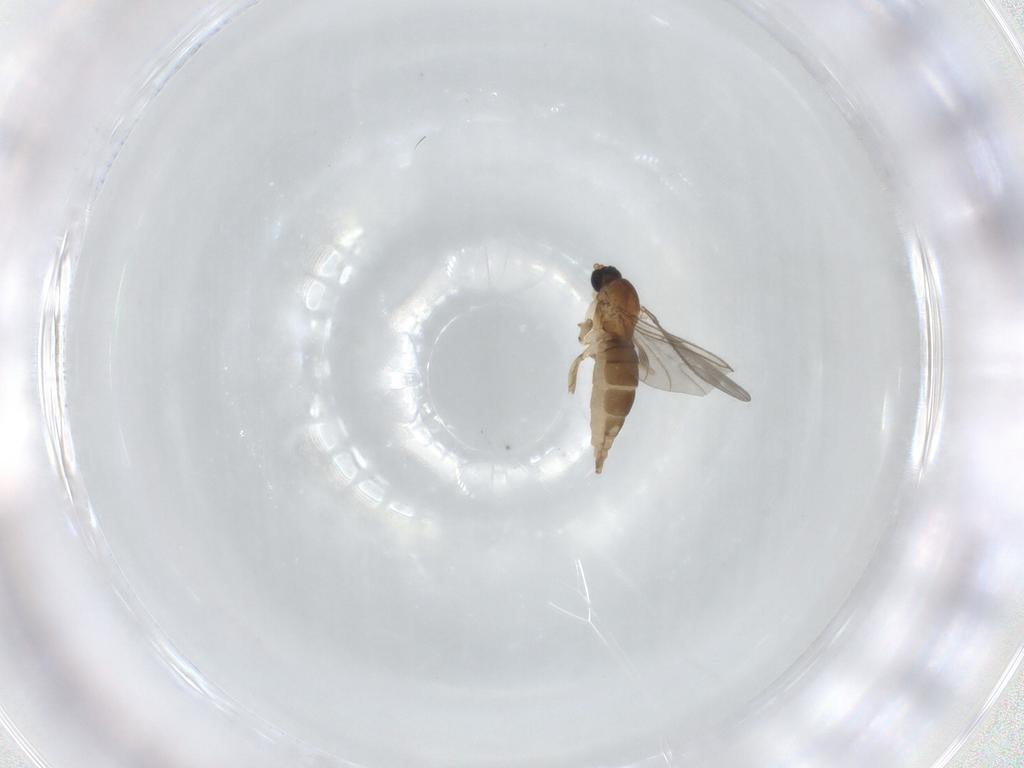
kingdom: Animalia
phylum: Arthropoda
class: Insecta
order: Diptera
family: Sciaridae
